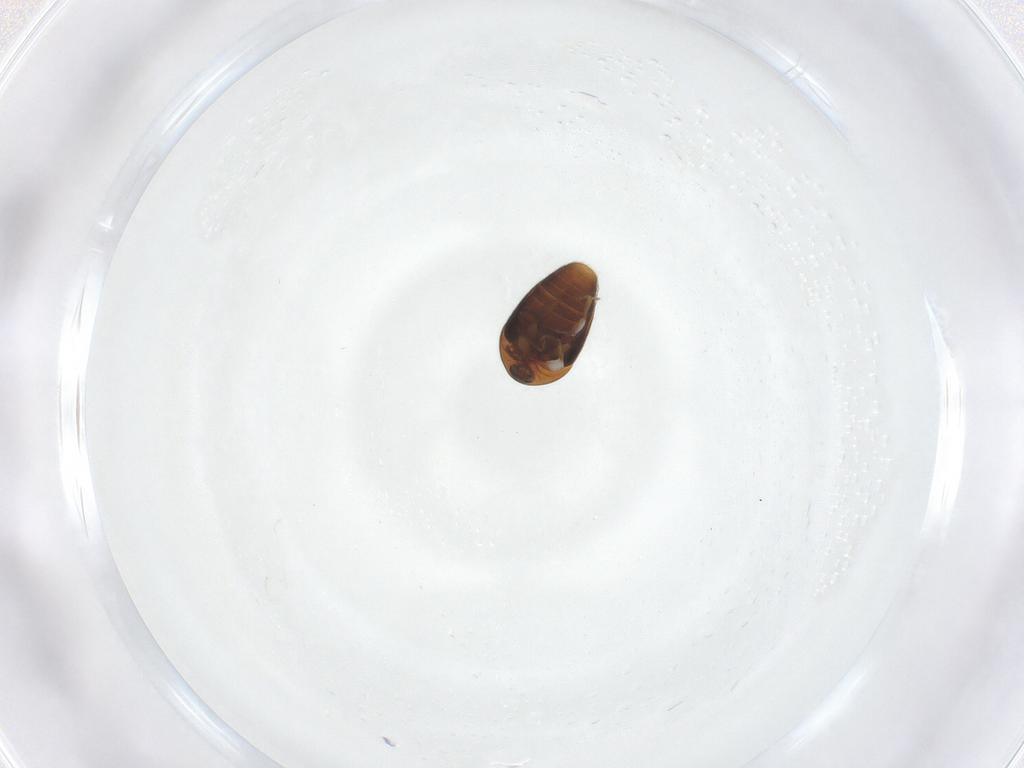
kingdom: Animalia
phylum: Arthropoda
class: Insecta
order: Coleoptera
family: Corylophidae
